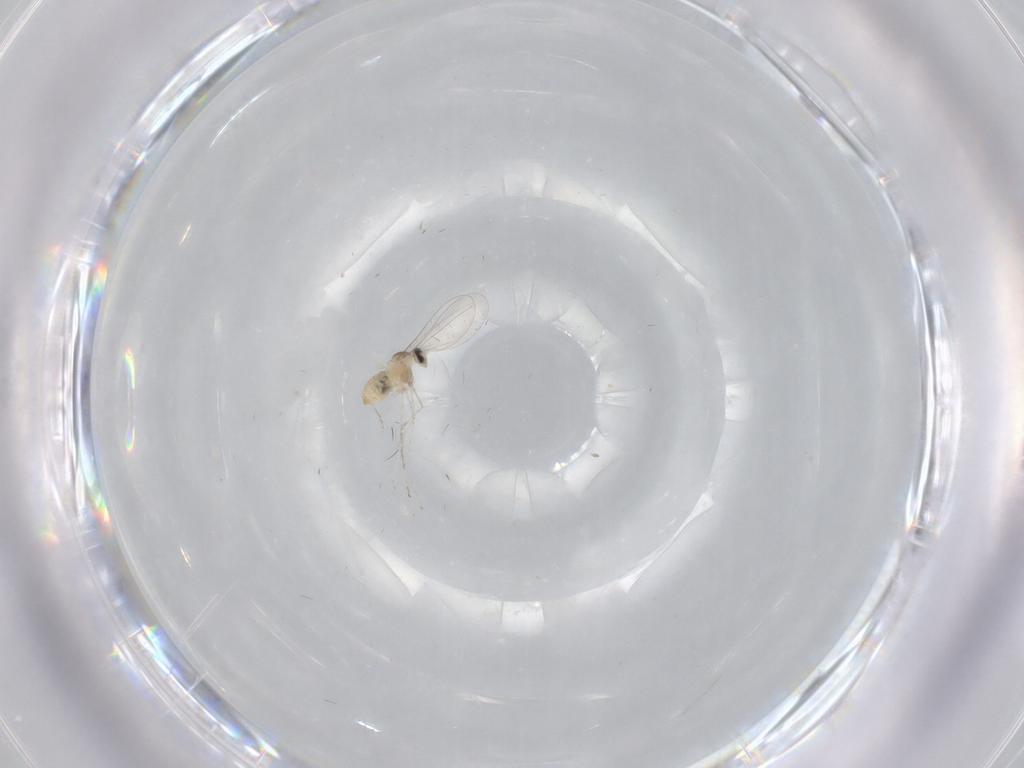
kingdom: Animalia
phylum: Arthropoda
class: Insecta
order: Diptera
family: Cecidomyiidae
